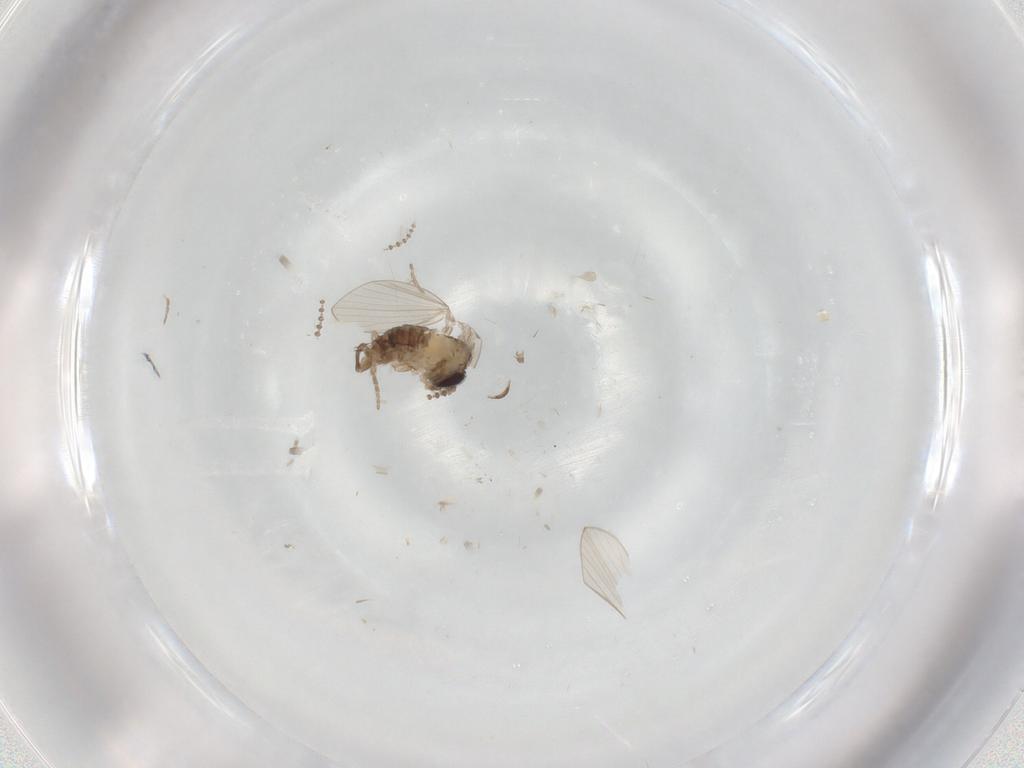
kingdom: Animalia
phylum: Arthropoda
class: Insecta
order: Diptera
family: Psychodidae
